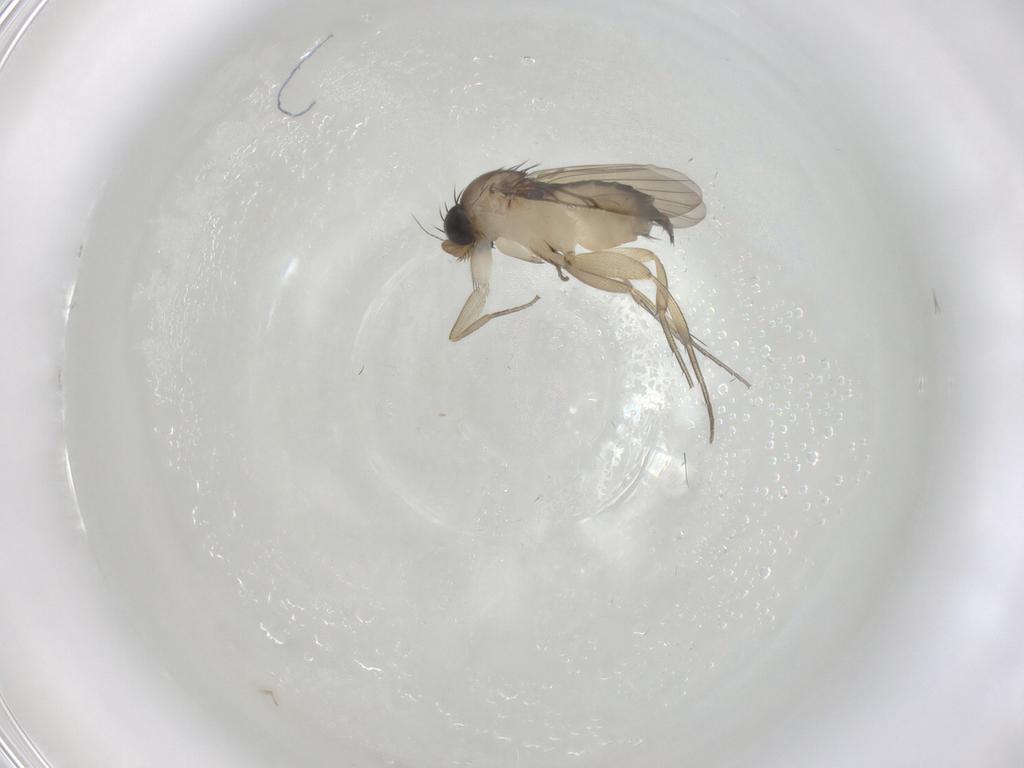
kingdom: Animalia
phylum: Arthropoda
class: Insecta
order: Diptera
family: Phoridae
